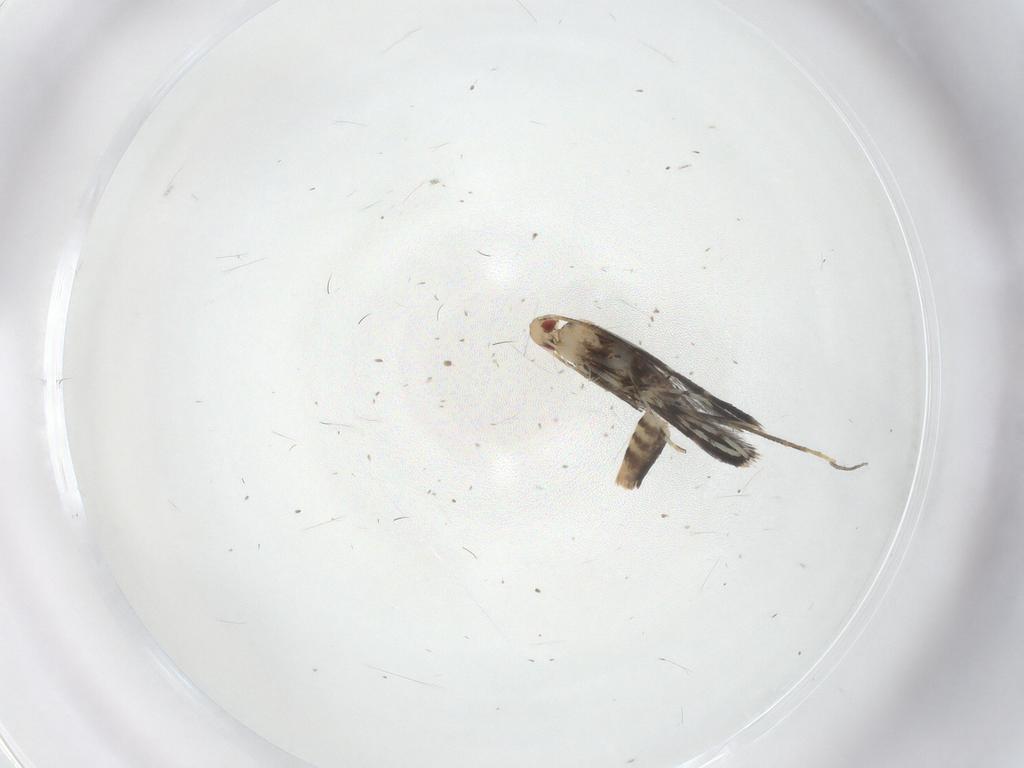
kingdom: Animalia
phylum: Arthropoda
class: Insecta
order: Lepidoptera
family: Gracillariidae
